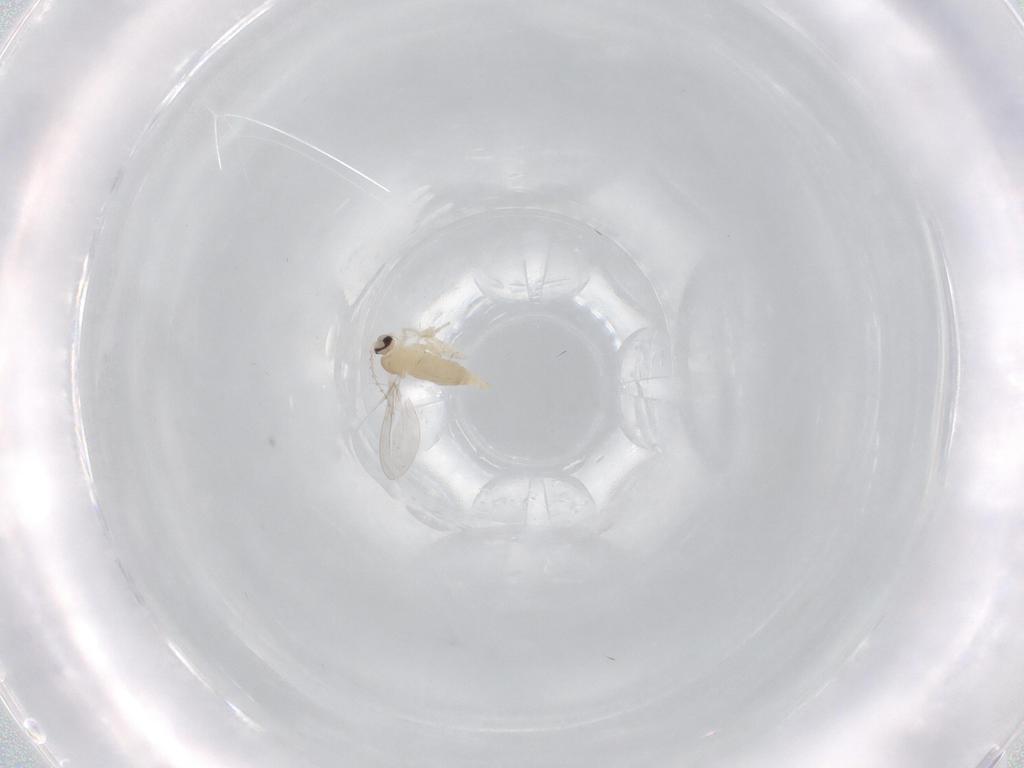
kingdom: Animalia
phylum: Arthropoda
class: Insecta
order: Diptera
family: Cecidomyiidae
